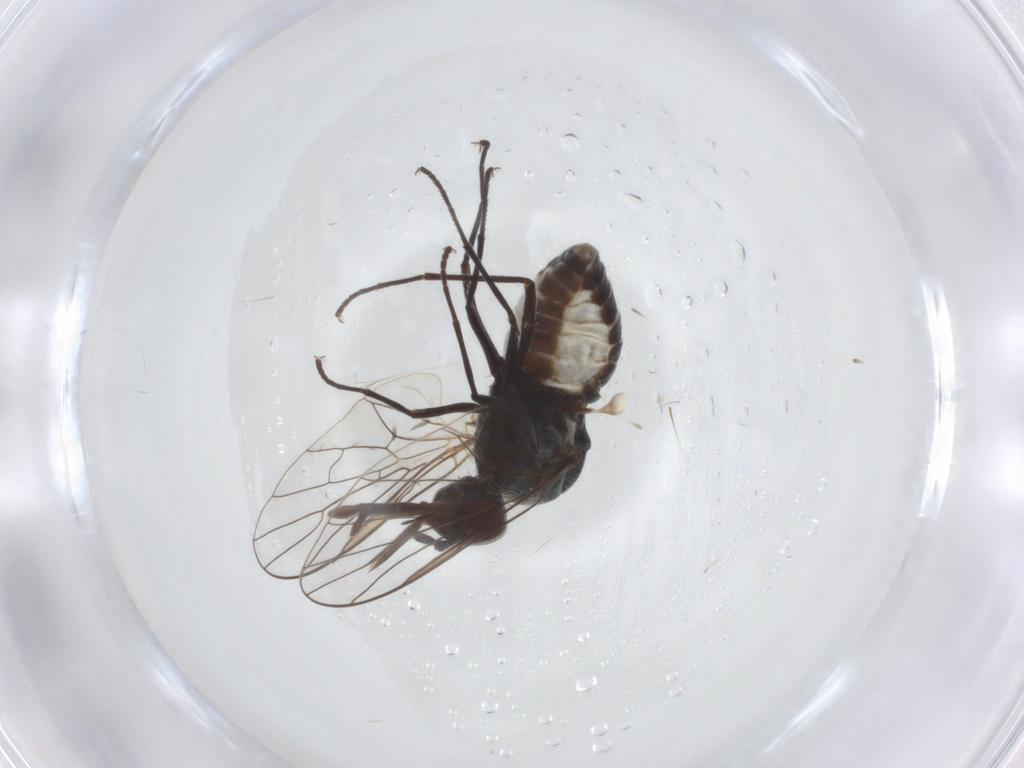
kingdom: Animalia
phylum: Arthropoda
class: Insecta
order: Diptera
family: Bombyliidae
